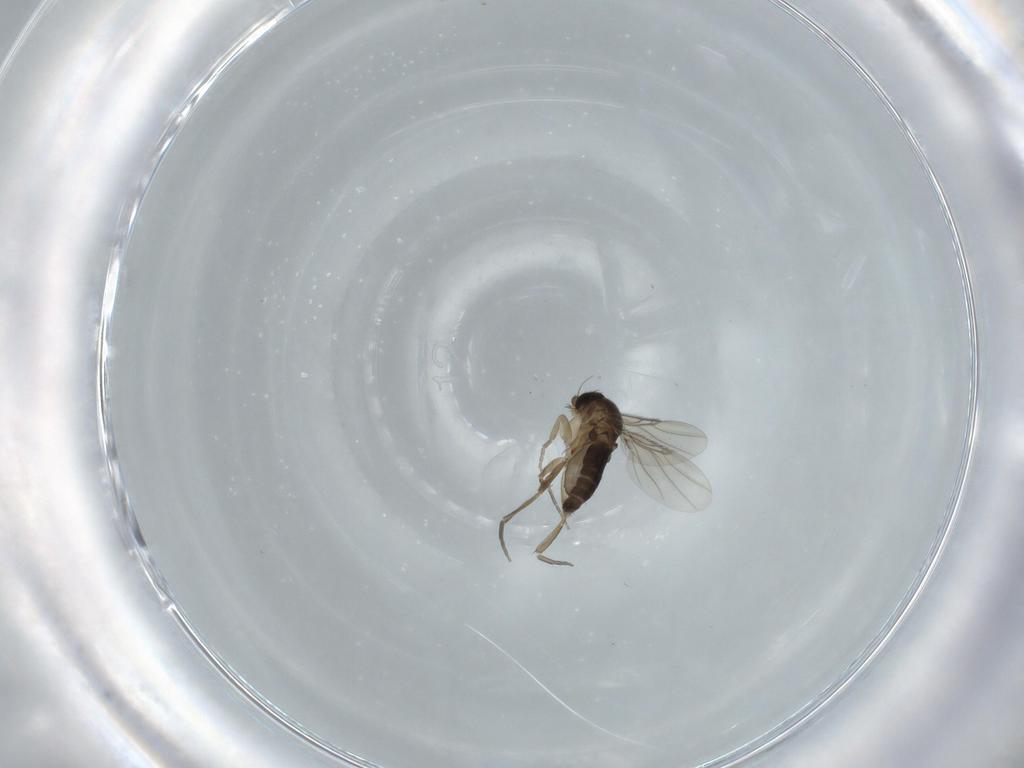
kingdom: Animalia
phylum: Arthropoda
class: Insecta
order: Diptera
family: Phoridae
